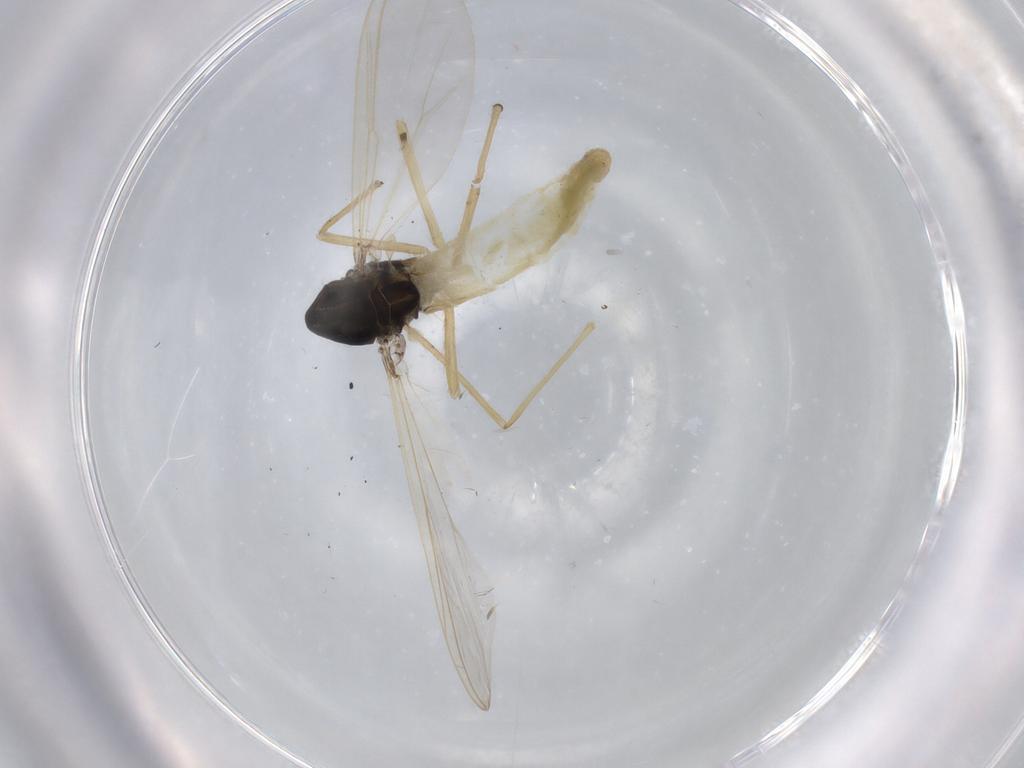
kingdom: Animalia
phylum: Arthropoda
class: Insecta
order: Diptera
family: Chironomidae
